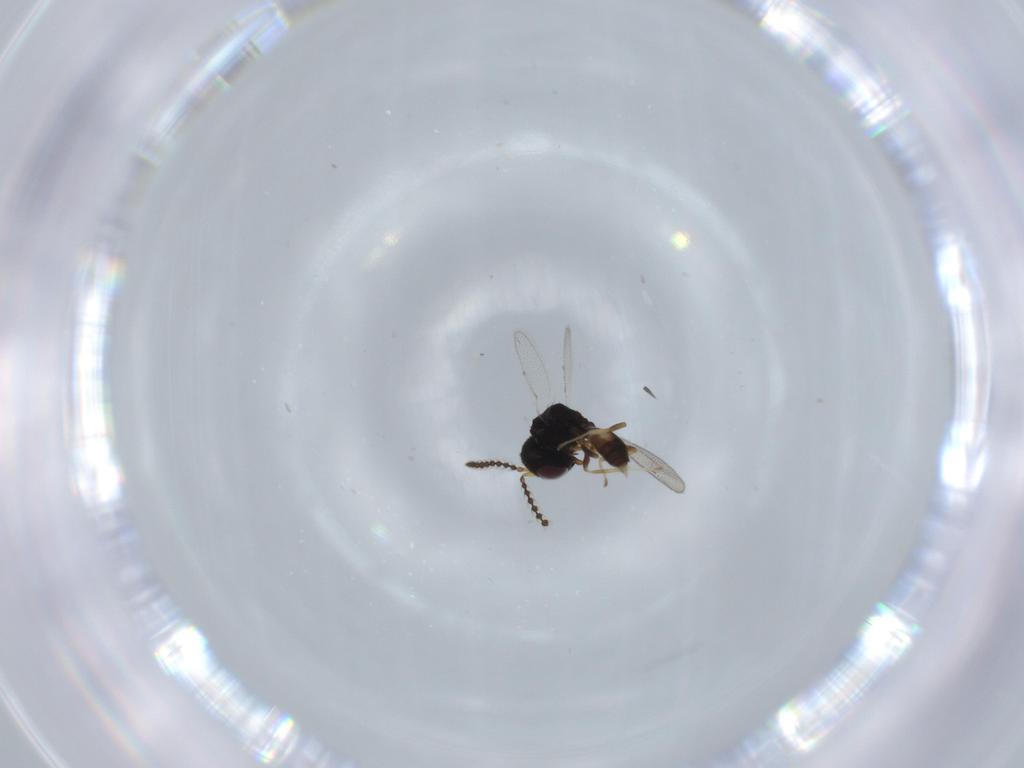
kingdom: Animalia
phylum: Arthropoda
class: Insecta
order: Hymenoptera
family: Pteromalidae
